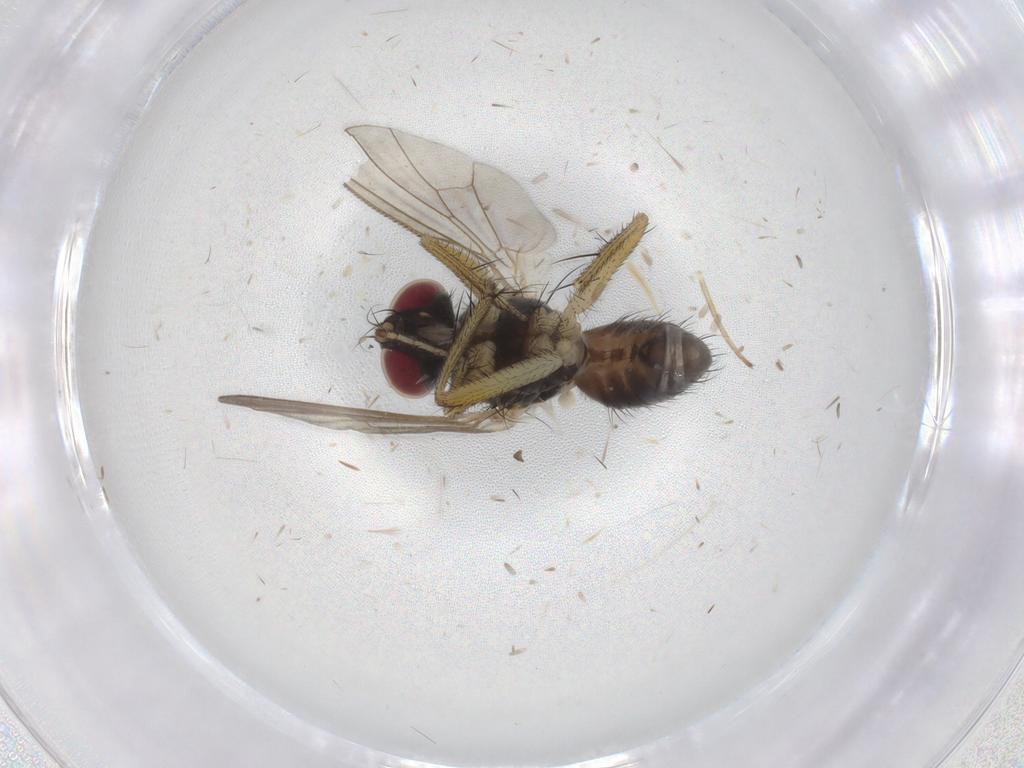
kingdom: Animalia
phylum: Arthropoda
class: Insecta
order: Diptera
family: Dolichopodidae
